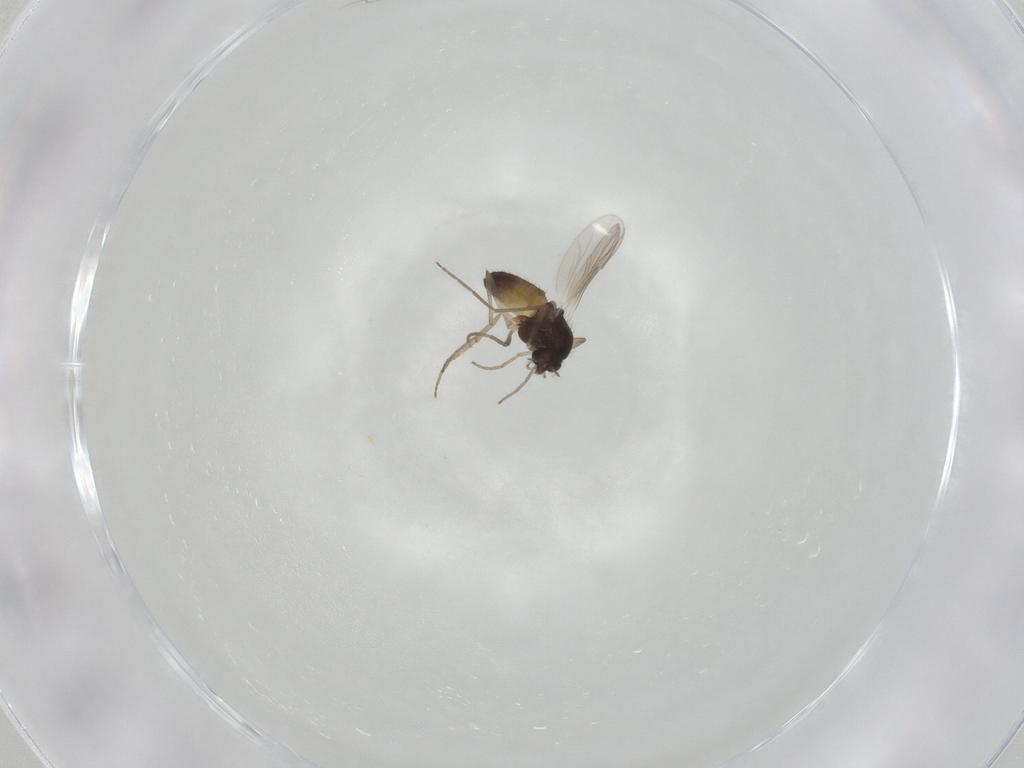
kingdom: Animalia
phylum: Arthropoda
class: Insecta
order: Diptera
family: Chironomidae
